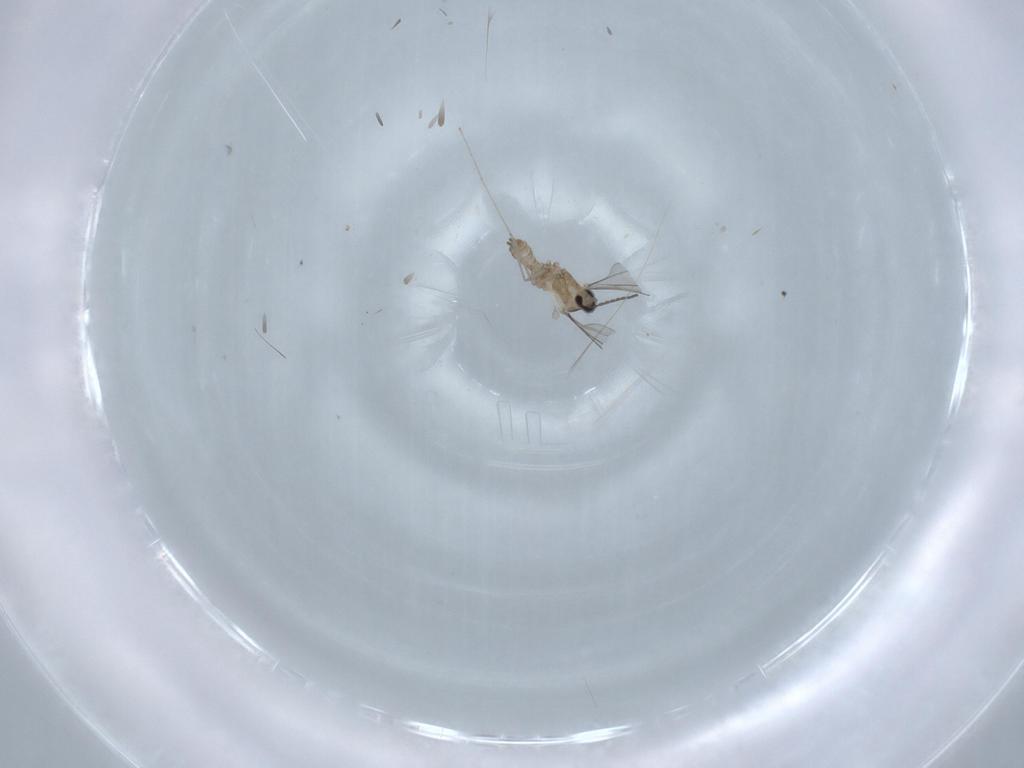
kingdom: Animalia
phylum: Arthropoda
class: Insecta
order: Diptera
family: Cecidomyiidae
